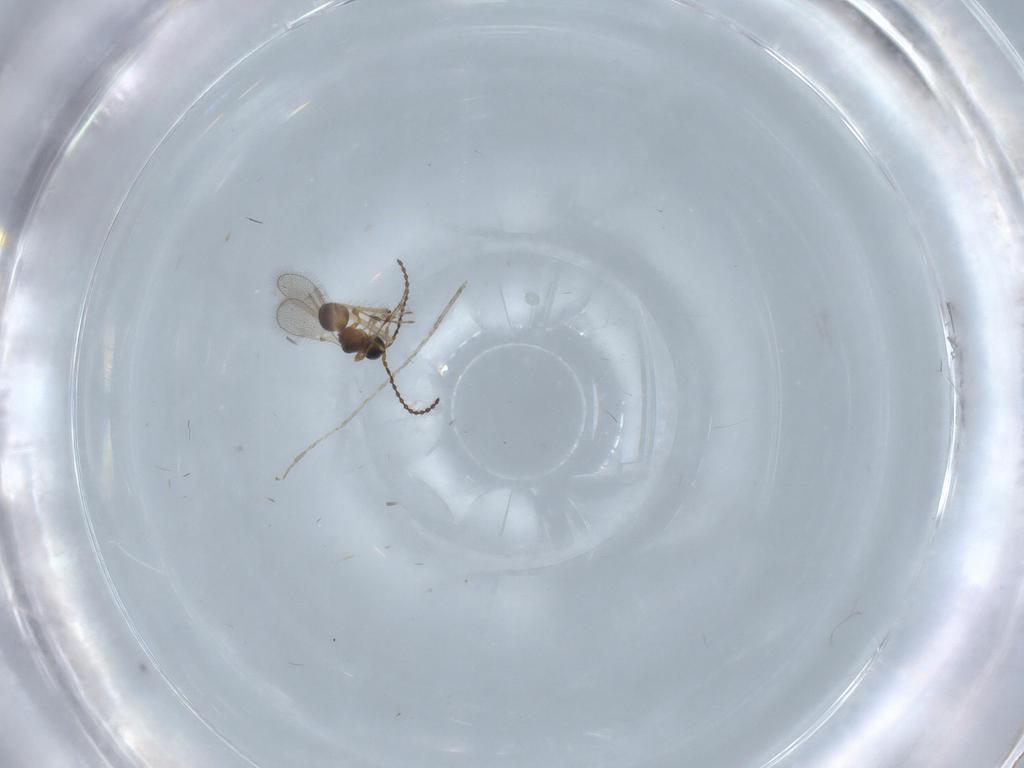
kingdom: Animalia
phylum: Arthropoda
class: Insecta
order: Hymenoptera
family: Diapriidae
